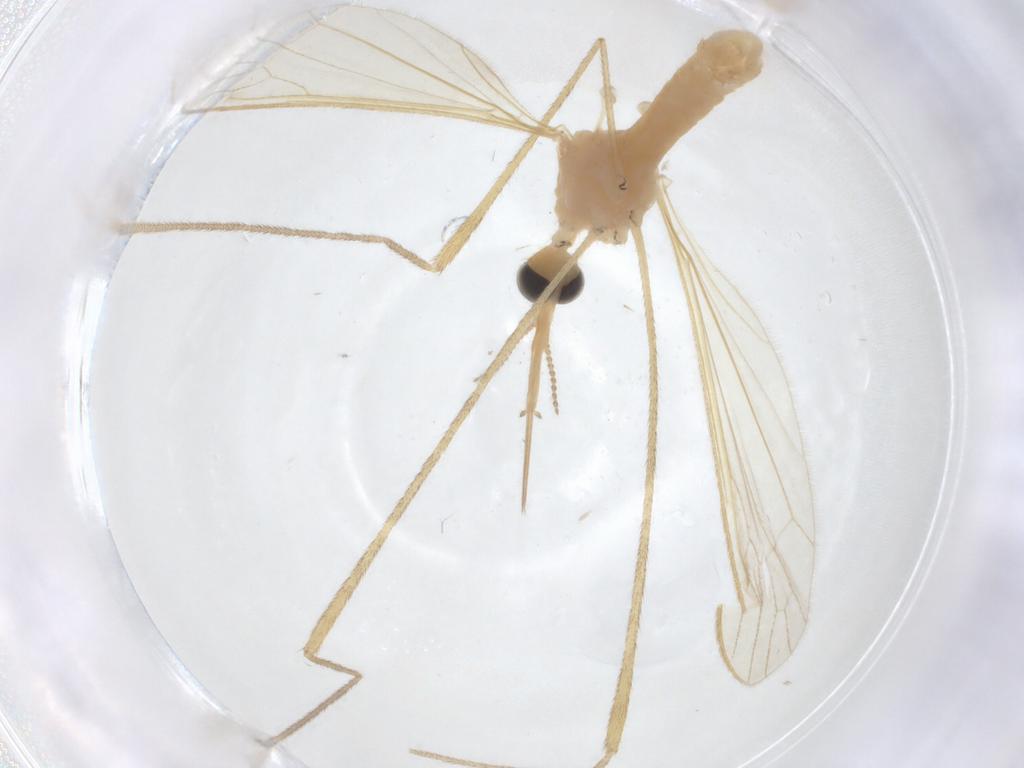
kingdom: Animalia
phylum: Arthropoda
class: Insecta
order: Diptera
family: Limoniidae
